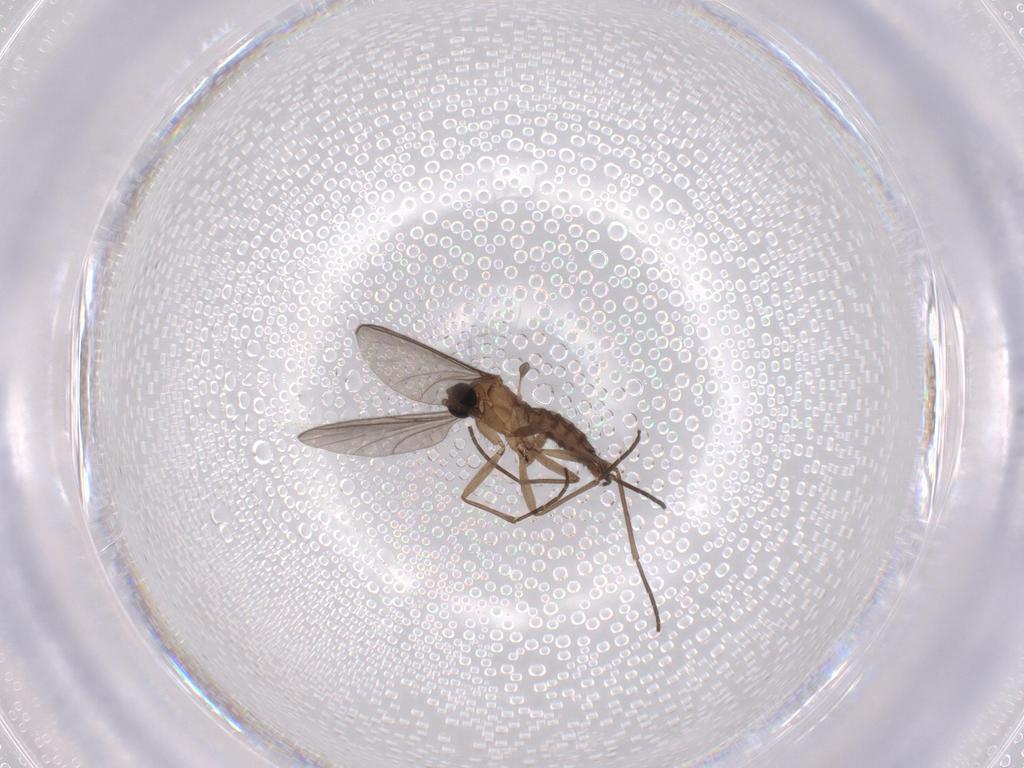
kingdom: Animalia
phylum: Arthropoda
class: Insecta
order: Diptera
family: Sciaridae
